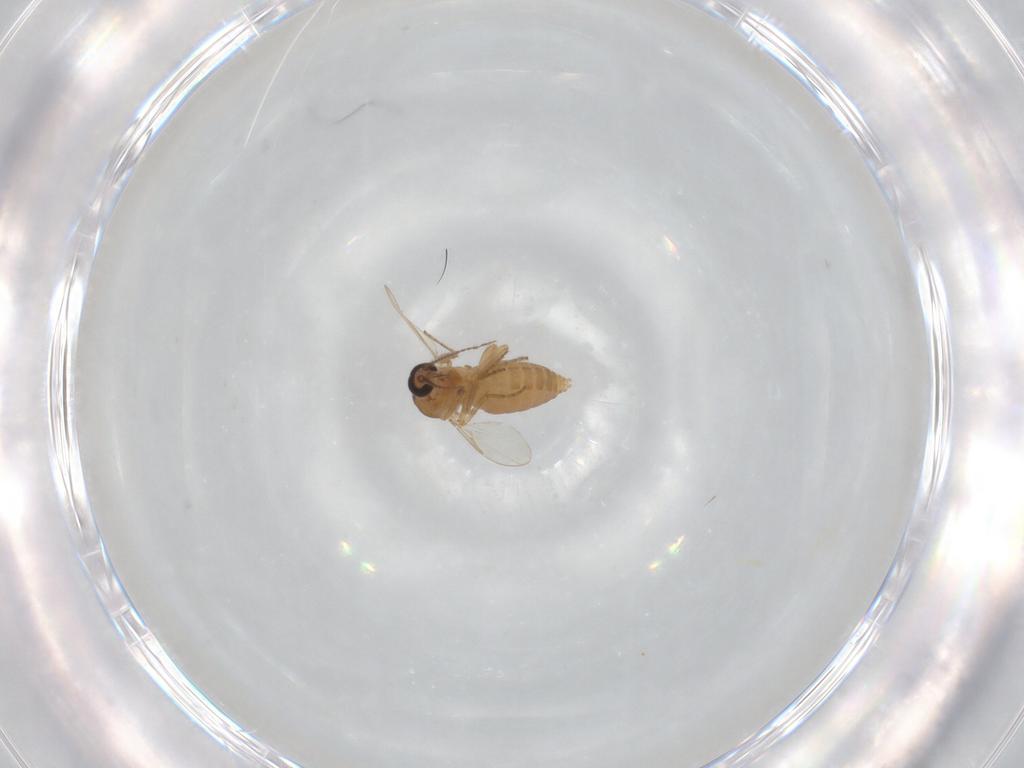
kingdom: Animalia
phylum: Arthropoda
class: Insecta
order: Diptera
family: Ceratopogonidae
